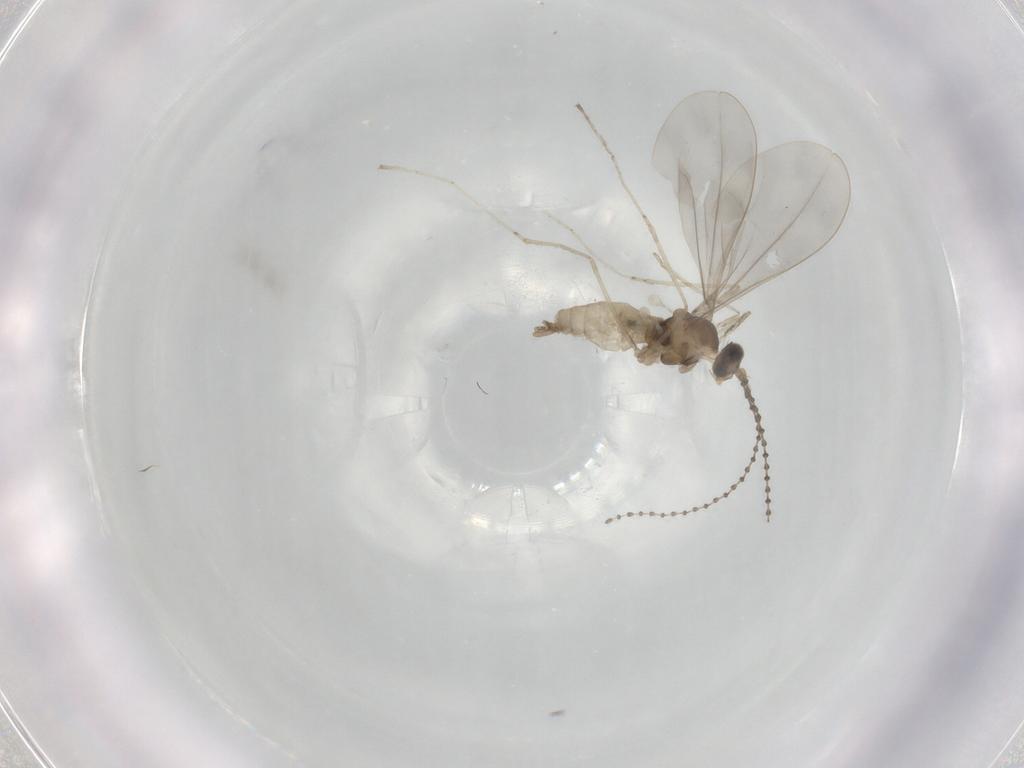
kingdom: Animalia
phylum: Arthropoda
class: Insecta
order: Diptera
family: Cecidomyiidae
